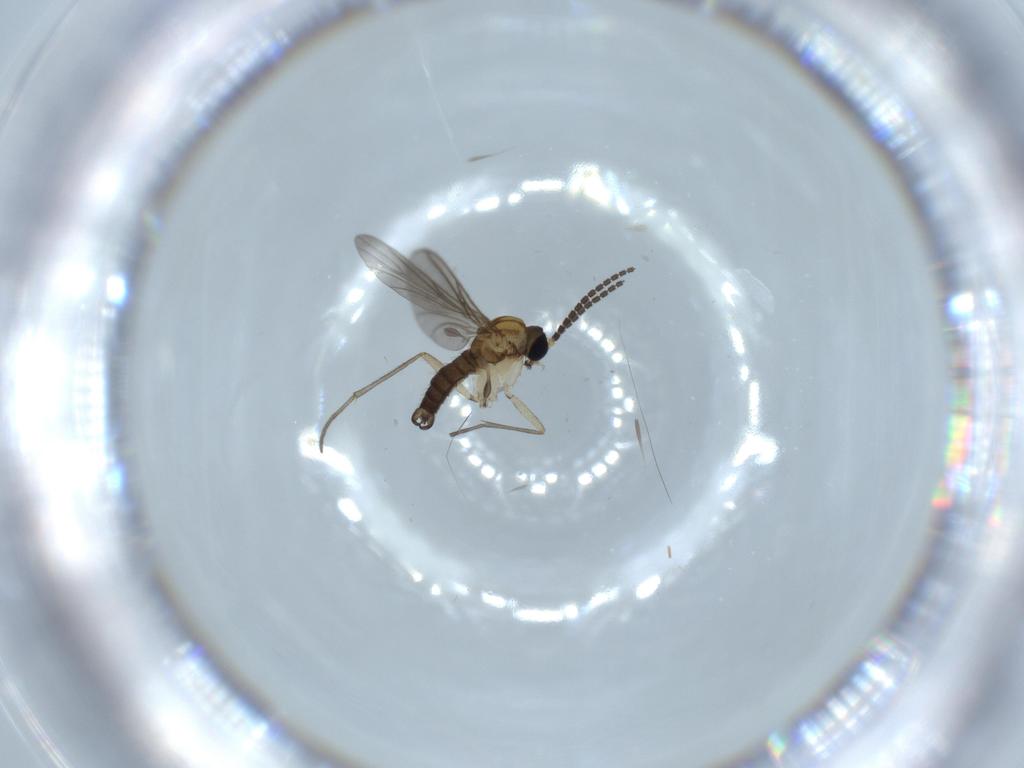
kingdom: Animalia
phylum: Arthropoda
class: Insecta
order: Diptera
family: Sciaridae
